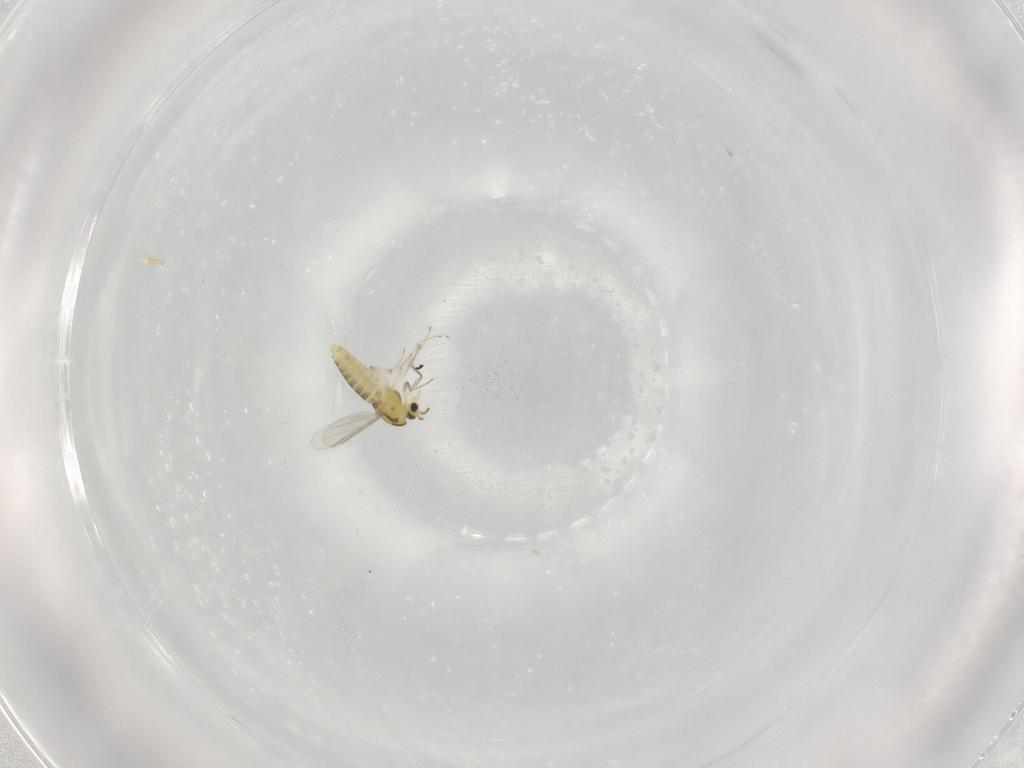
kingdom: Animalia
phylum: Arthropoda
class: Insecta
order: Diptera
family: Chironomidae
